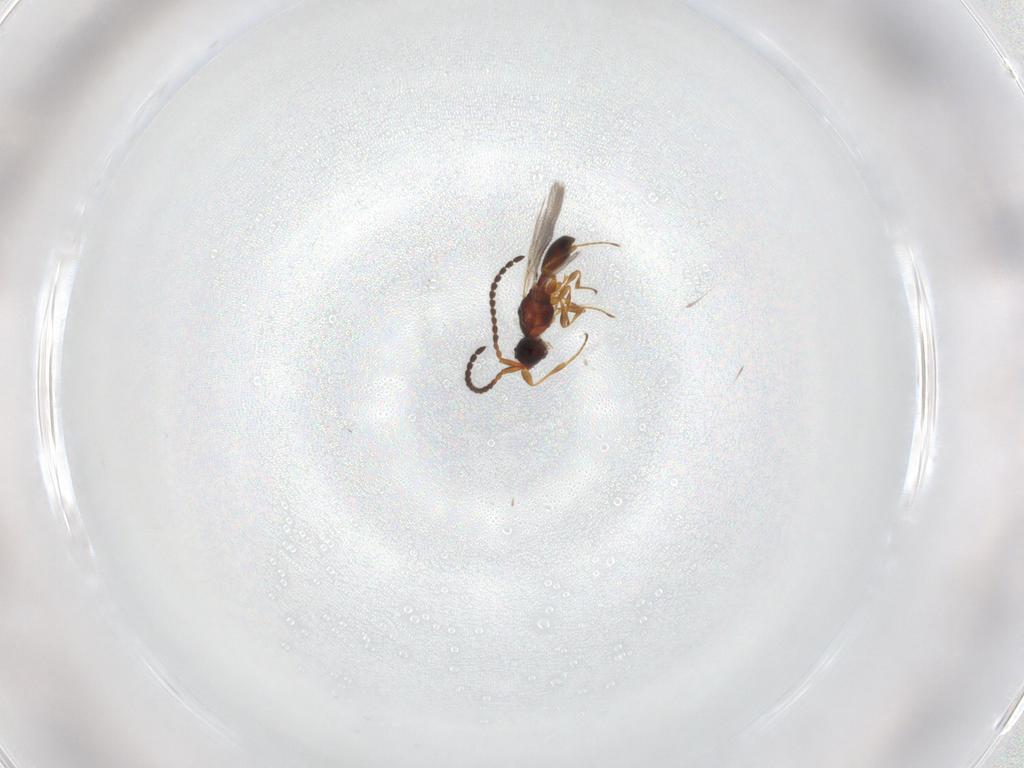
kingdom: Animalia
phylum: Arthropoda
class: Insecta
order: Hymenoptera
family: Diapriidae
